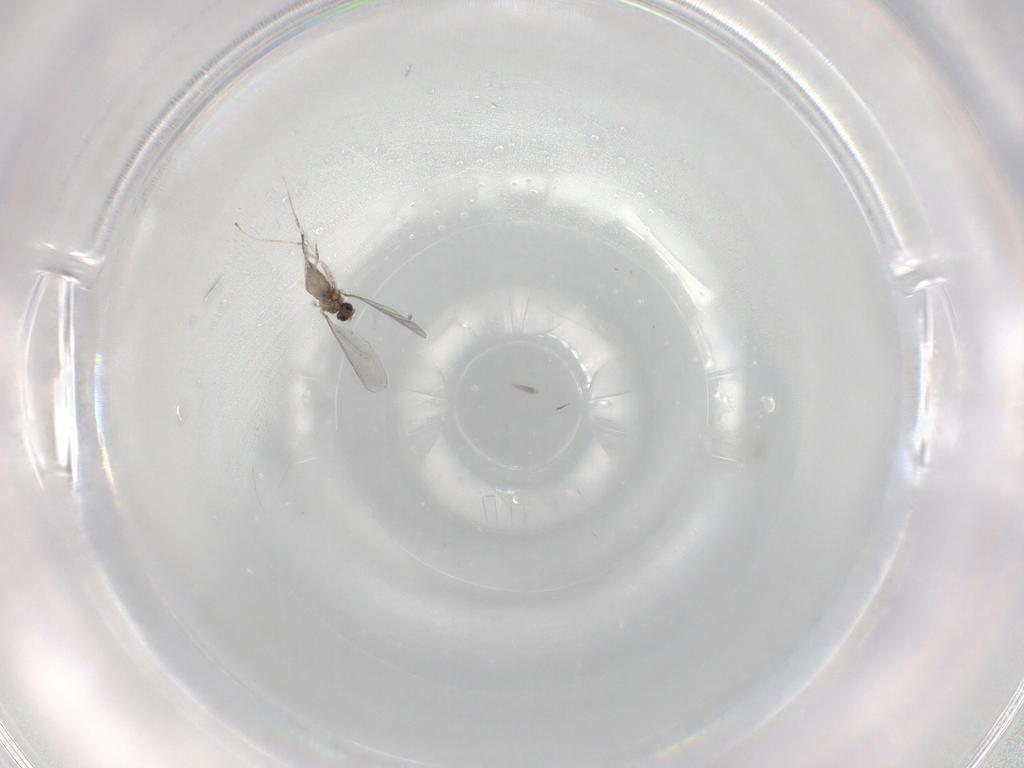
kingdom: Animalia
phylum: Arthropoda
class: Insecta
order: Diptera
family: Cecidomyiidae
